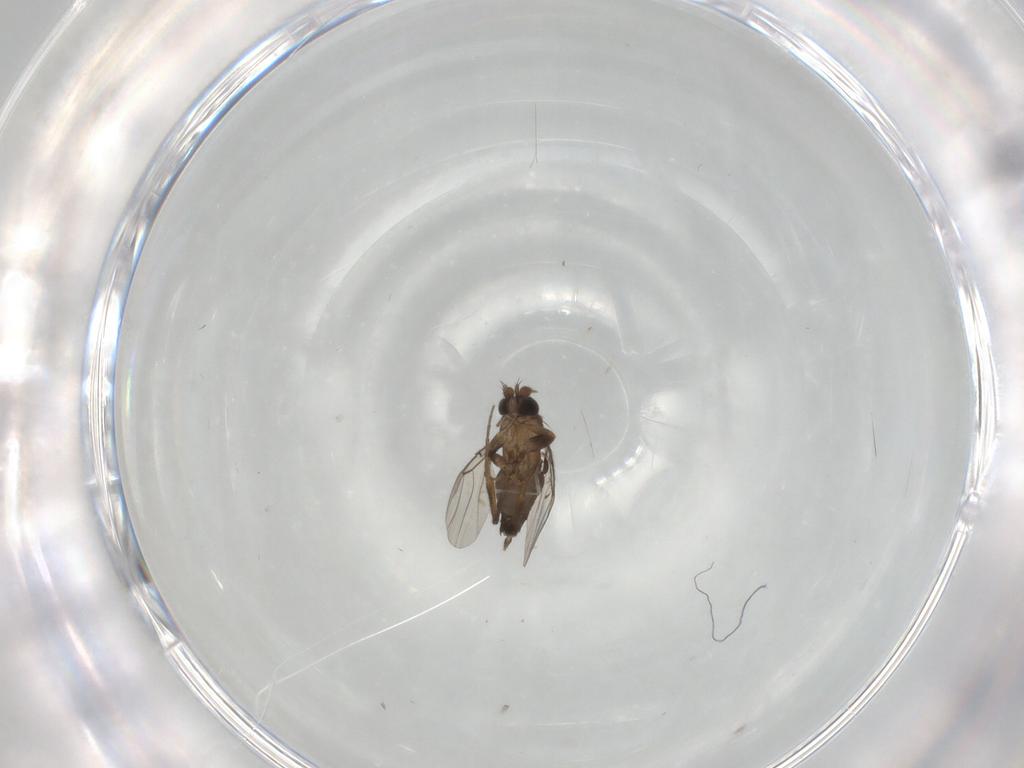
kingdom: Animalia
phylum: Arthropoda
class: Insecta
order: Diptera
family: Phoridae
